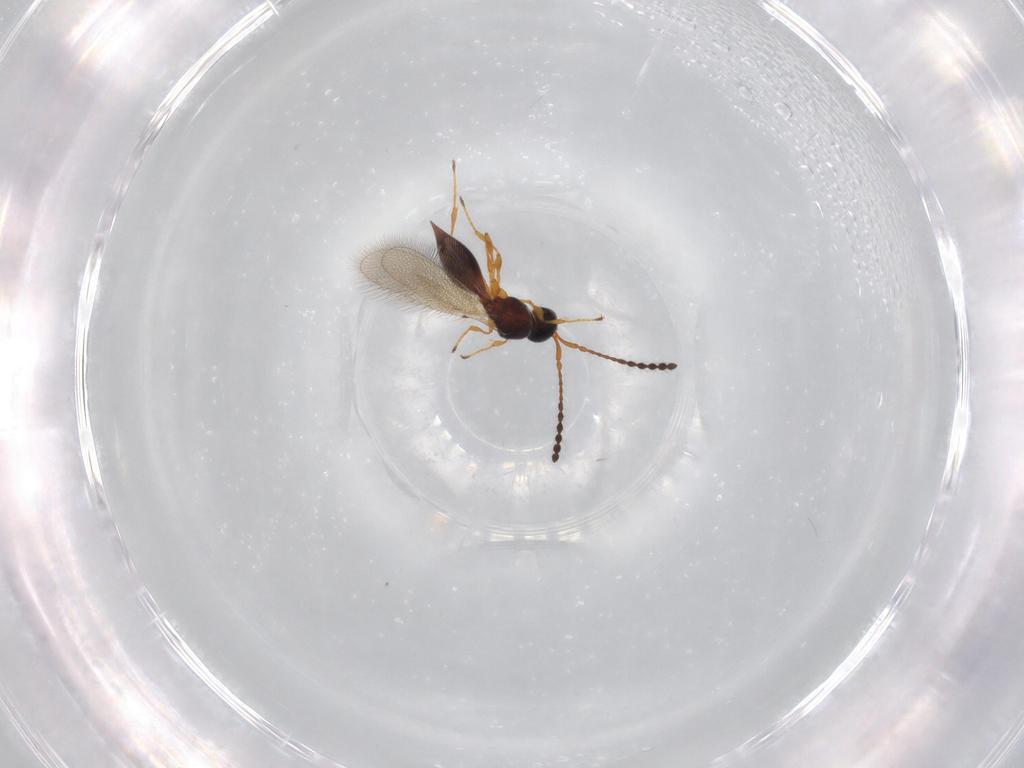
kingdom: Animalia
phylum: Arthropoda
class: Insecta
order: Hymenoptera
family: Diapriidae
